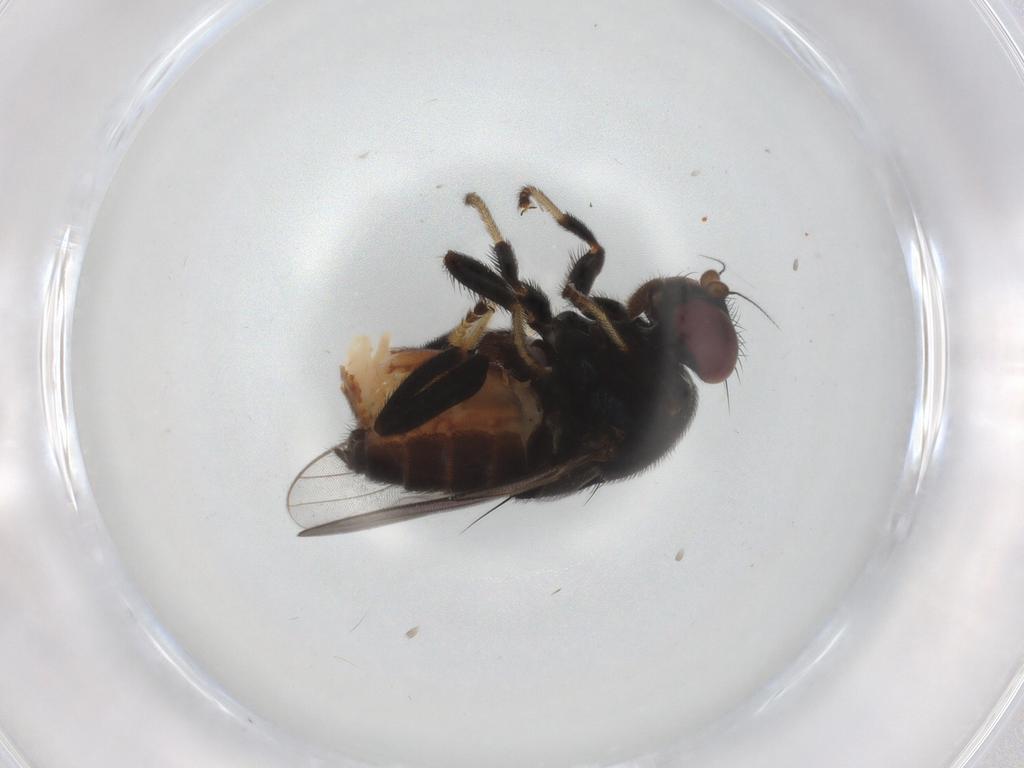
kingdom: Animalia
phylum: Arthropoda
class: Insecta
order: Diptera
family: Chloropidae
